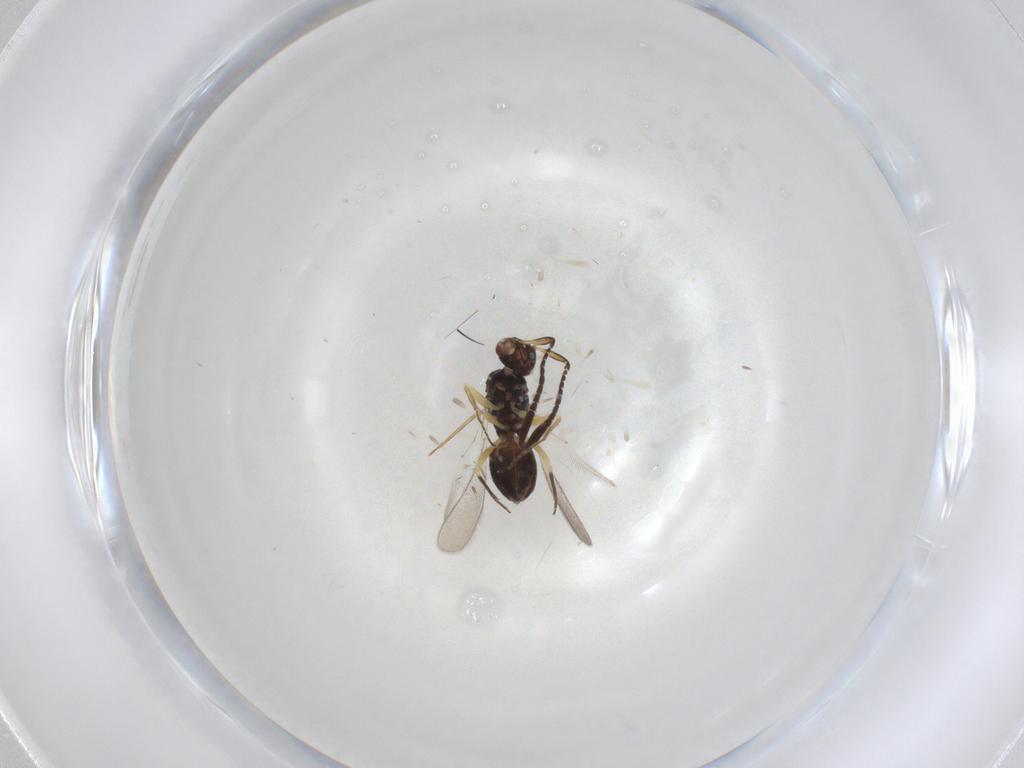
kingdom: Animalia
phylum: Arthropoda
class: Insecta
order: Hymenoptera
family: Mymaridae
